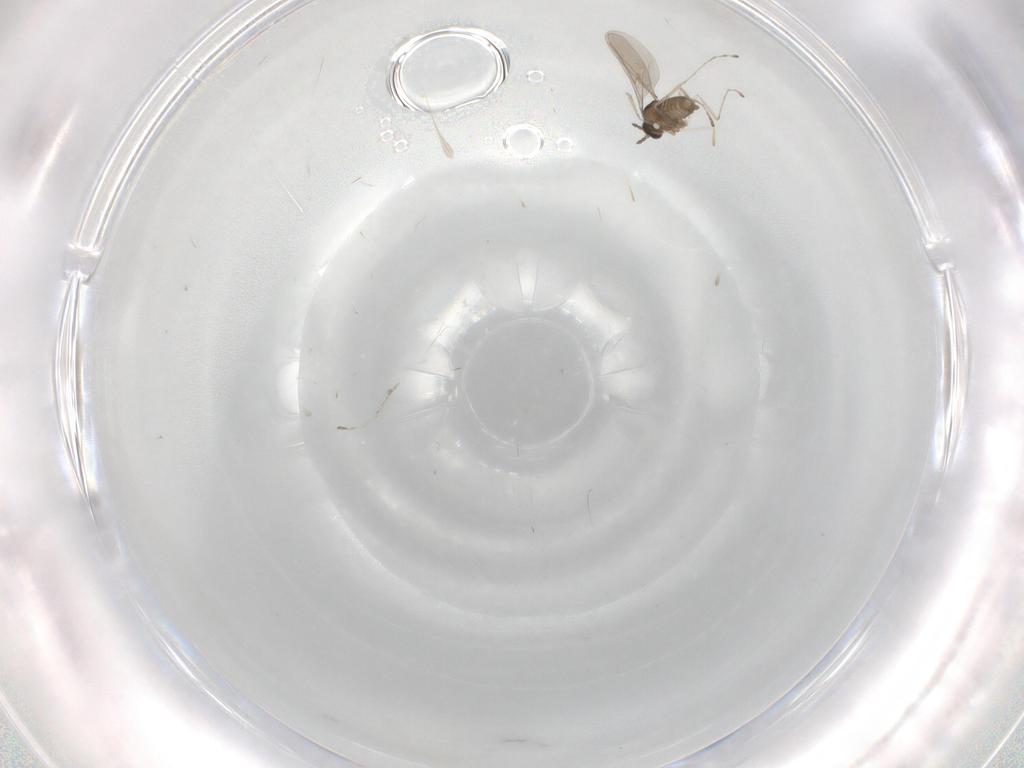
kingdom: Animalia
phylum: Arthropoda
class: Insecta
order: Diptera
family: Cecidomyiidae
